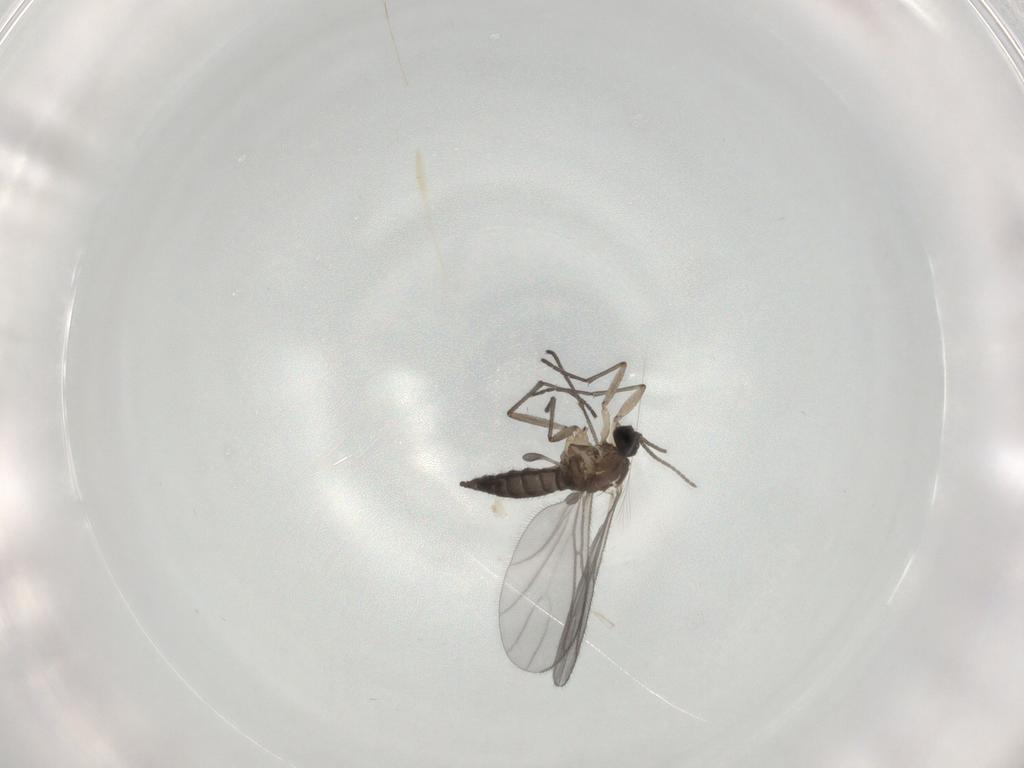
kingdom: Animalia
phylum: Arthropoda
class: Insecta
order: Diptera
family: Sciaridae
